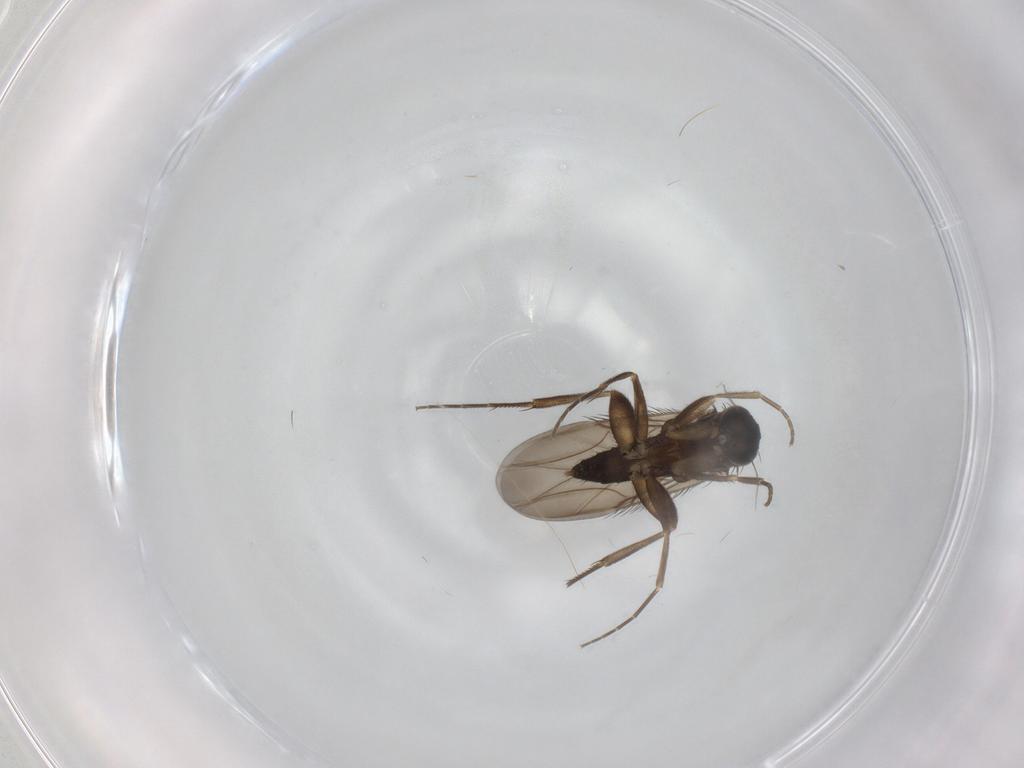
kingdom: Animalia
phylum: Arthropoda
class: Insecta
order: Diptera
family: Phoridae
